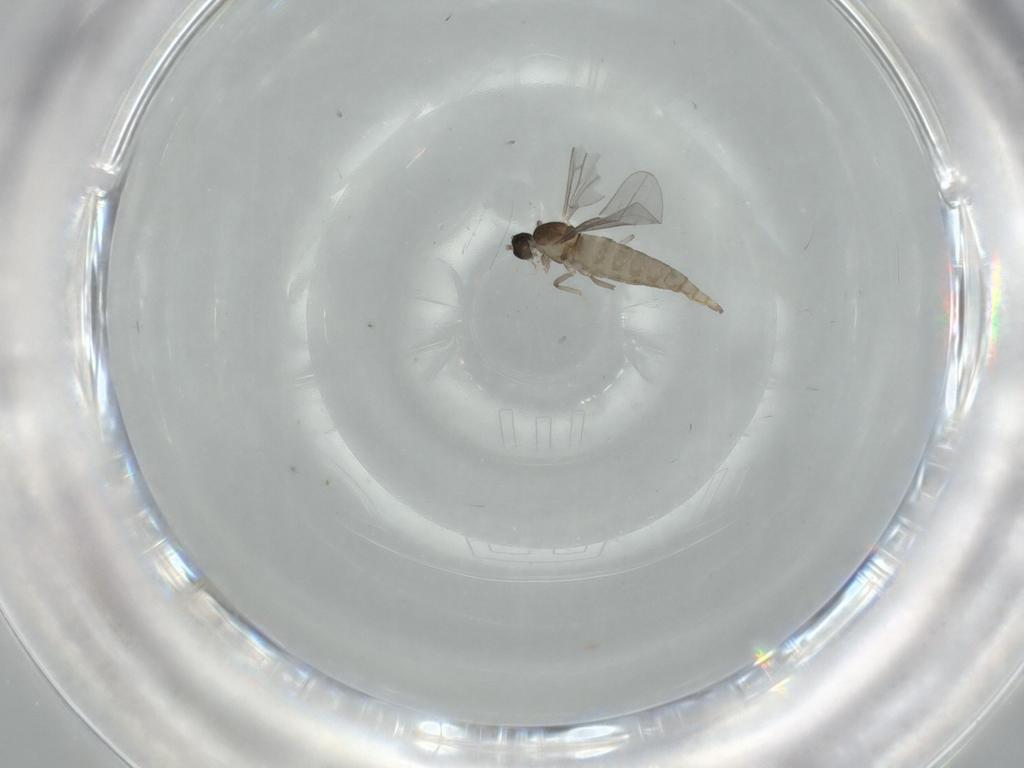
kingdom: Animalia
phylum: Arthropoda
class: Insecta
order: Diptera
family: Cecidomyiidae
